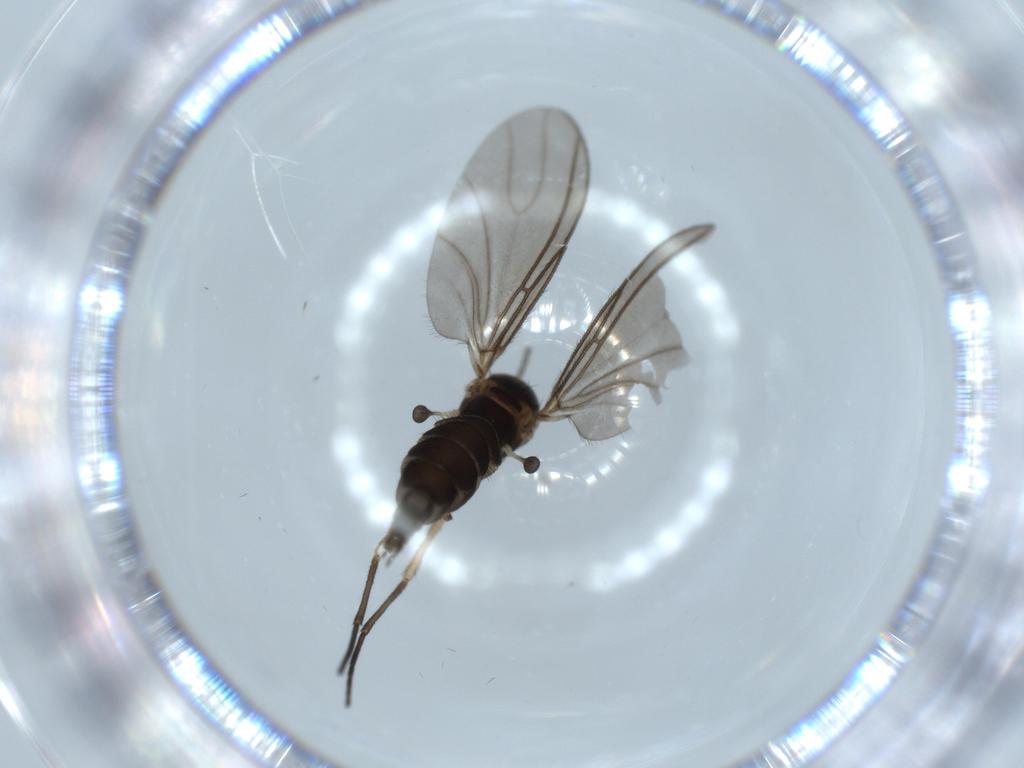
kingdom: Animalia
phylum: Arthropoda
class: Insecta
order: Diptera
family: Sciaridae
